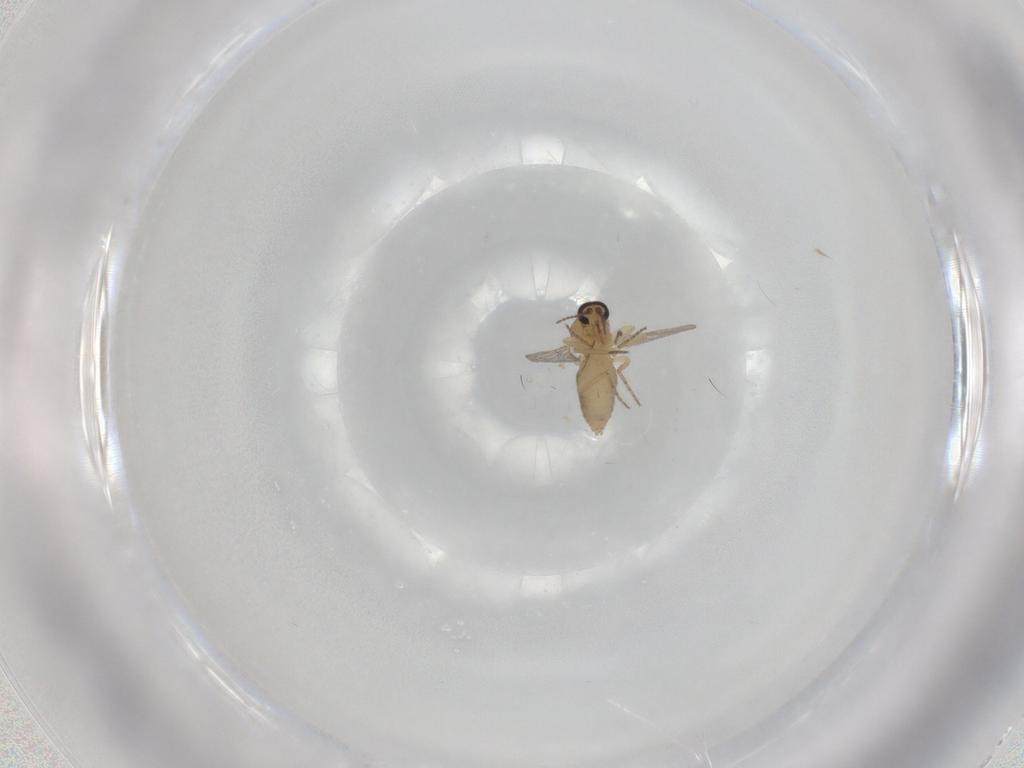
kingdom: Animalia
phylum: Arthropoda
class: Insecta
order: Diptera
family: Ceratopogonidae
